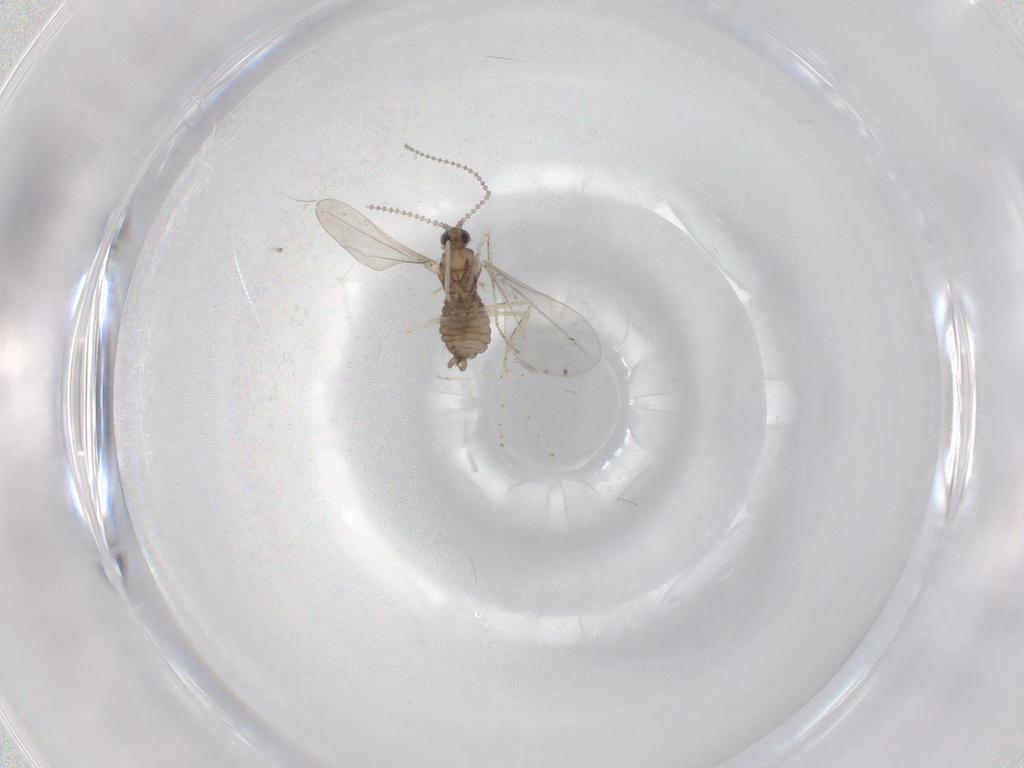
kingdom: Animalia
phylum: Arthropoda
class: Insecta
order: Diptera
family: Cecidomyiidae
